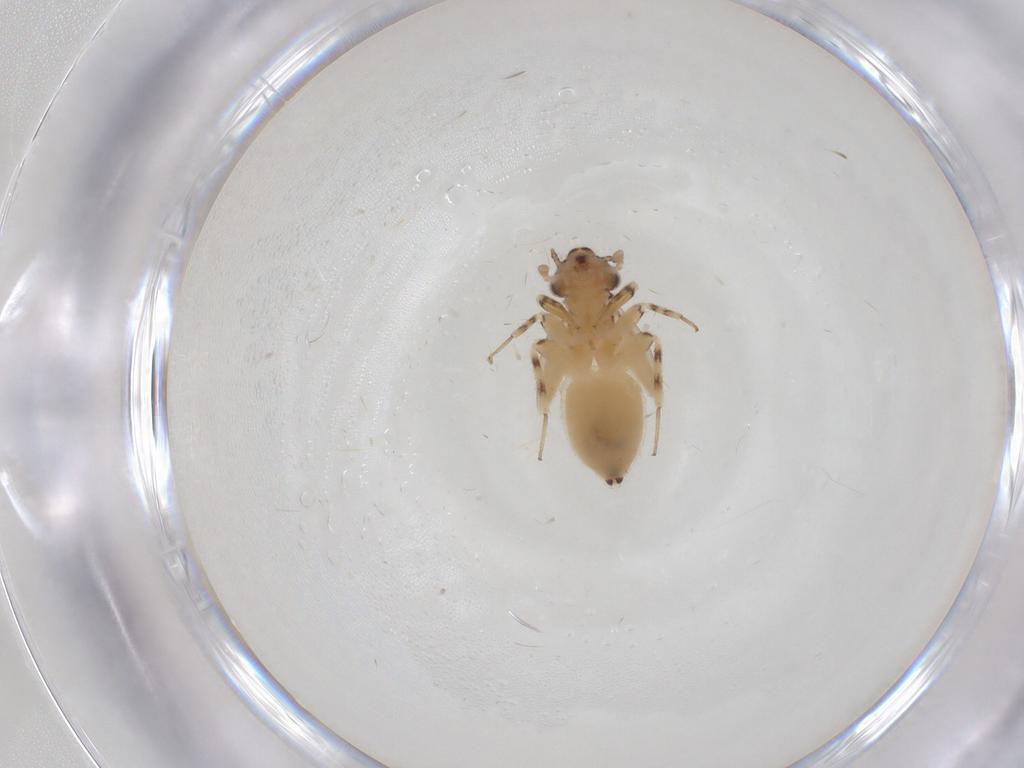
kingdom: Animalia
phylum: Arthropoda
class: Insecta
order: Psocodea
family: Lepidopsocidae
